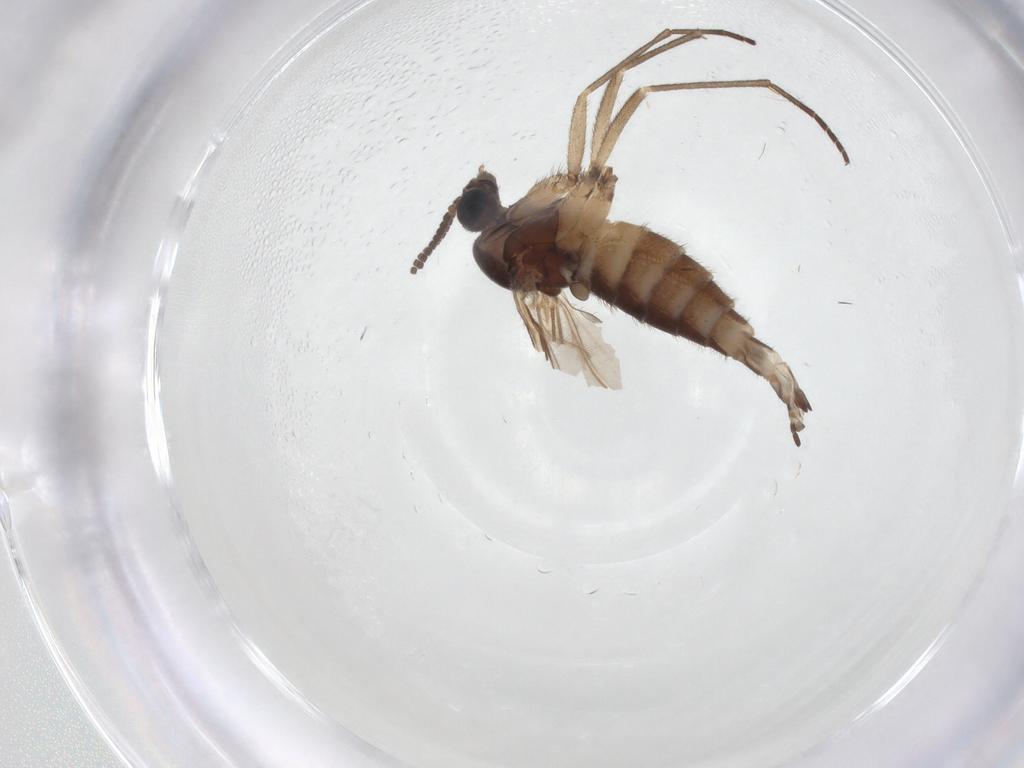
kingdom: Animalia
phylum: Arthropoda
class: Insecta
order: Diptera
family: Sciaridae
